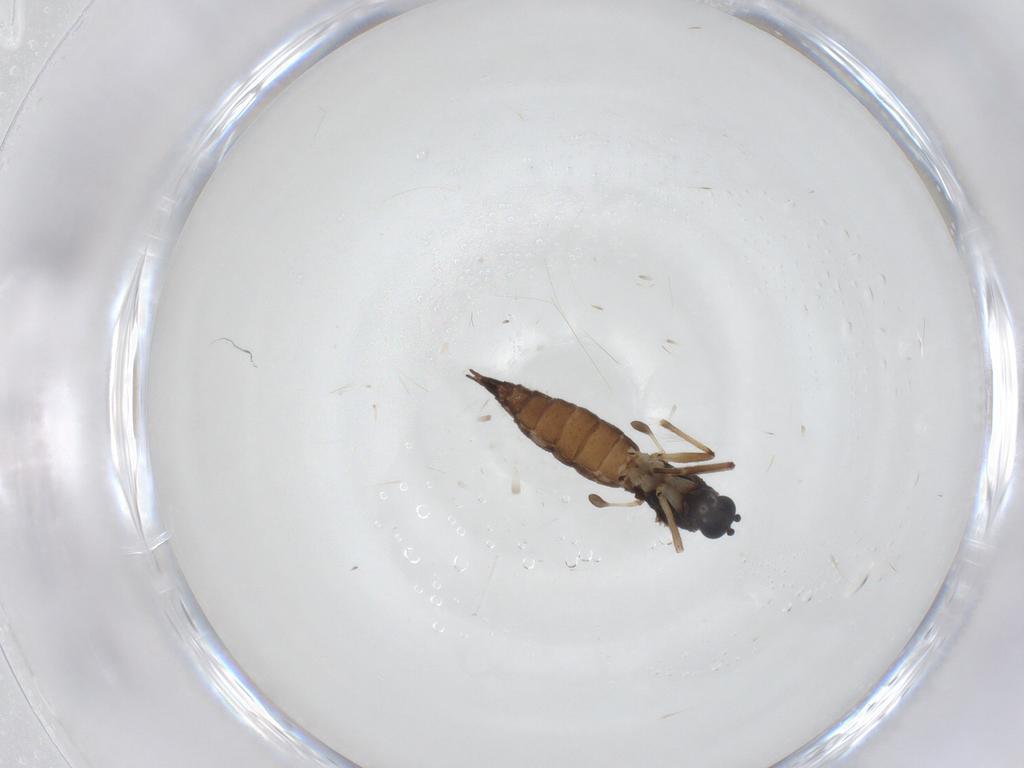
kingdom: Animalia
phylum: Arthropoda
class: Insecta
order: Diptera
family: Sciaridae
